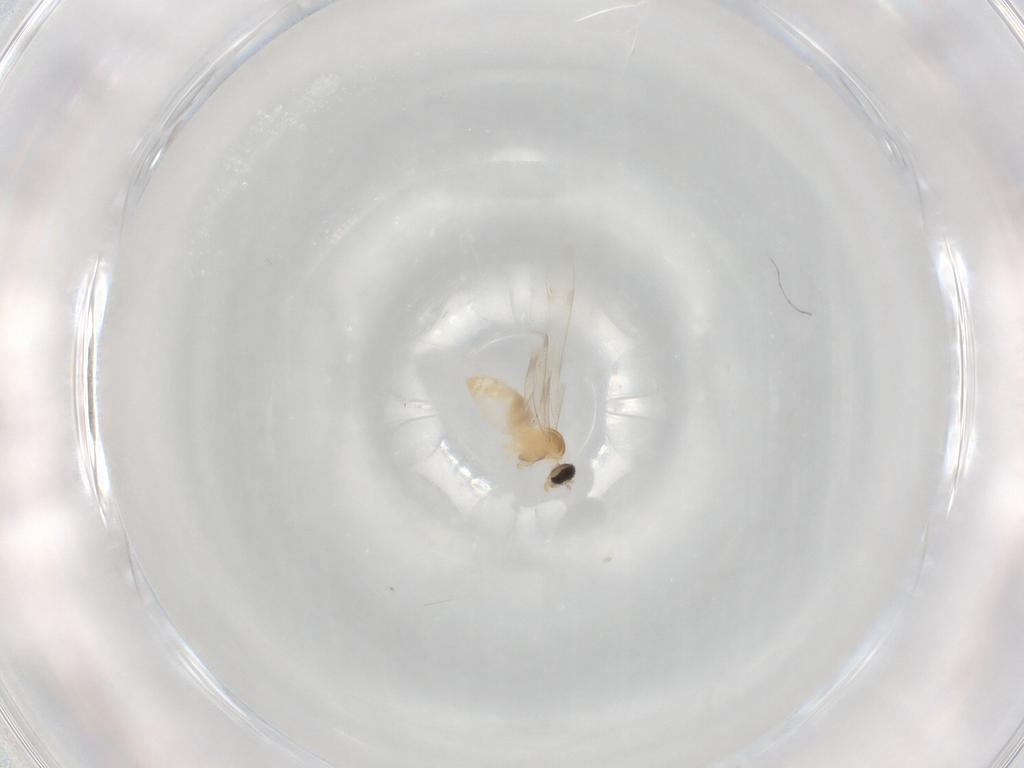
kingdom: Animalia
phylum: Arthropoda
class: Insecta
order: Diptera
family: Cecidomyiidae
